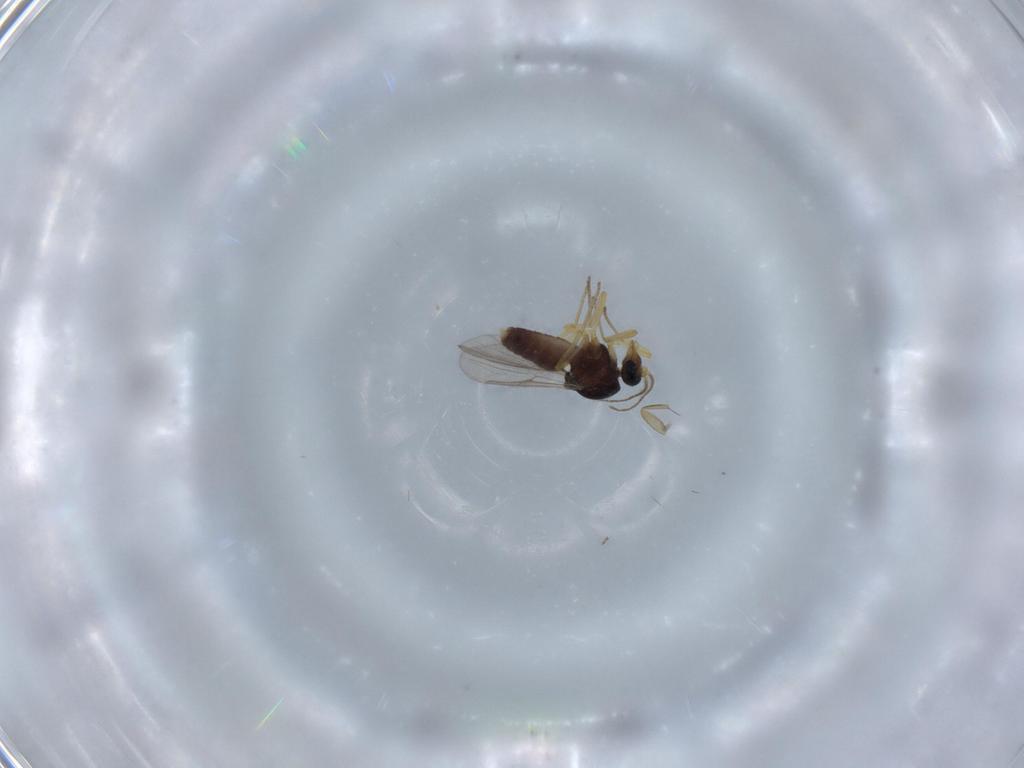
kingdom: Animalia
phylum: Arthropoda
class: Insecta
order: Diptera
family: Ceratopogonidae
